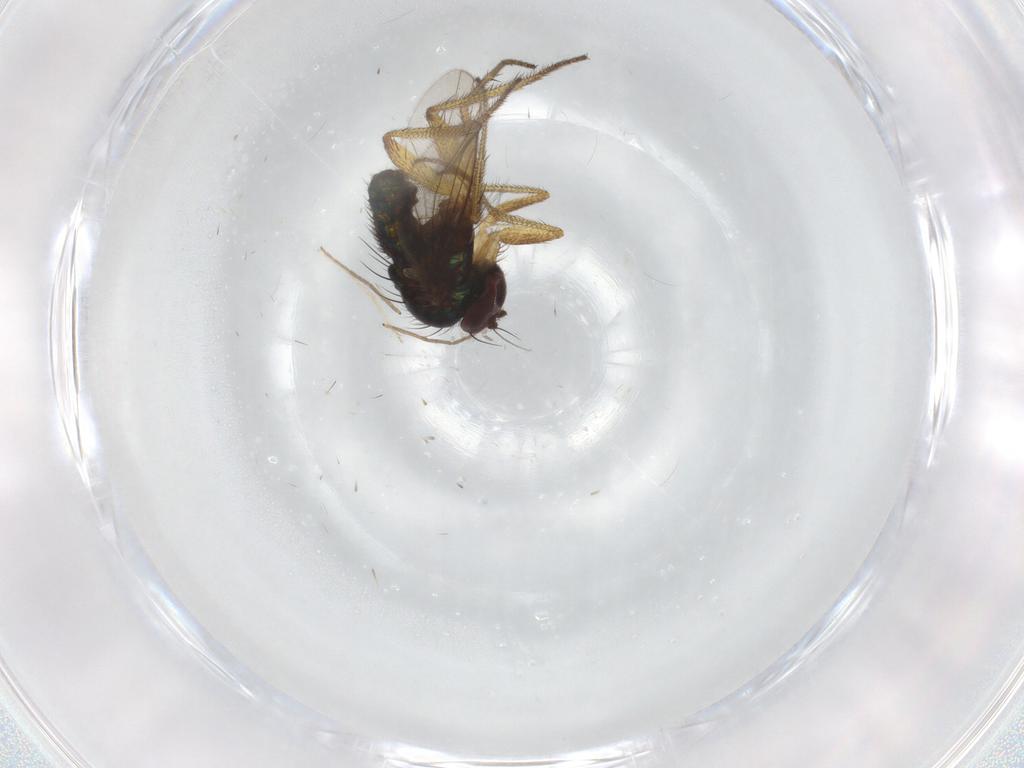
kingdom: Animalia
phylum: Arthropoda
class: Insecta
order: Diptera
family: Chironomidae
